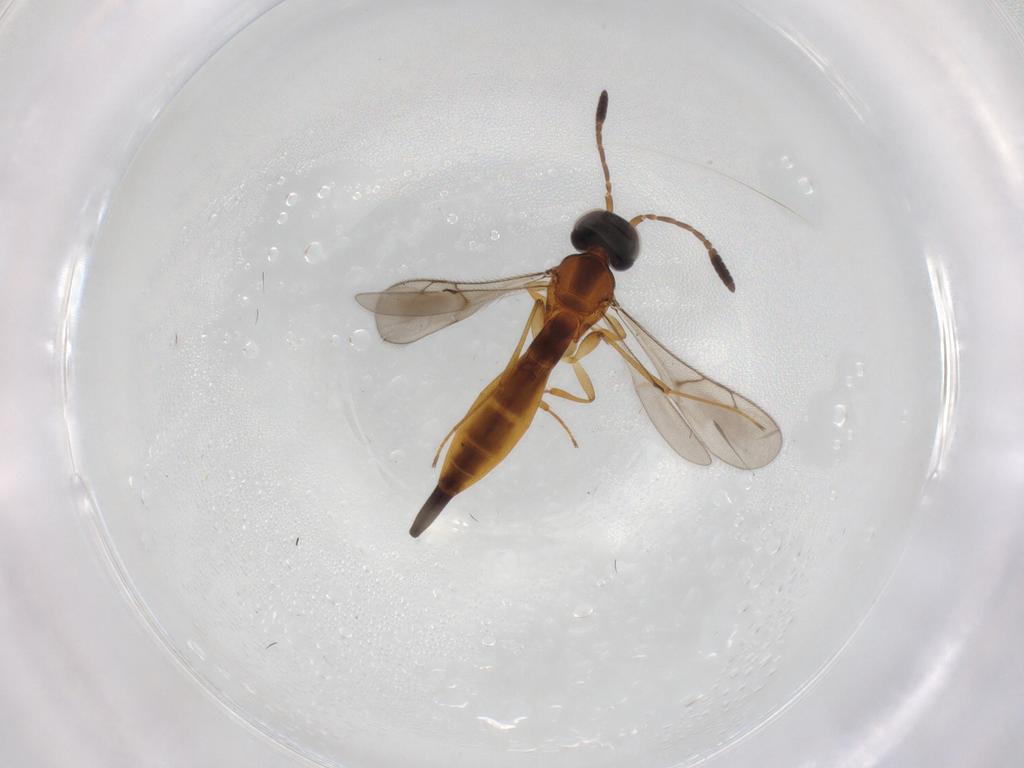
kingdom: Animalia
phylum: Arthropoda
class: Insecta
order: Hymenoptera
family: Scelionidae
